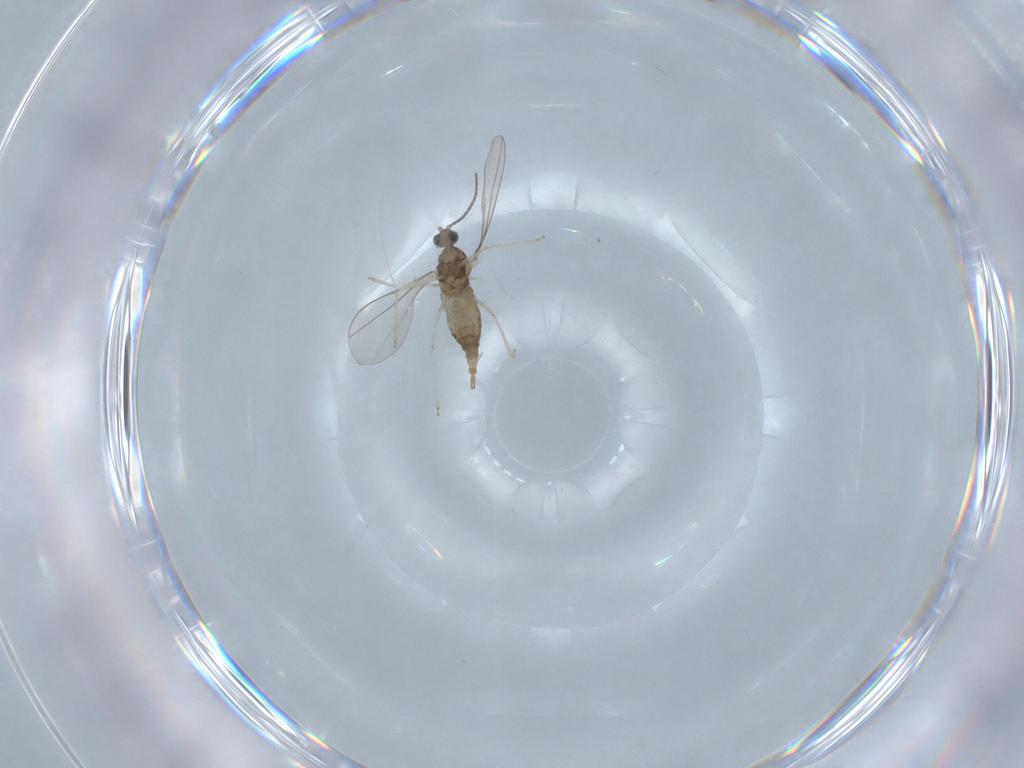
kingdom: Animalia
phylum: Arthropoda
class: Insecta
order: Diptera
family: Cecidomyiidae
